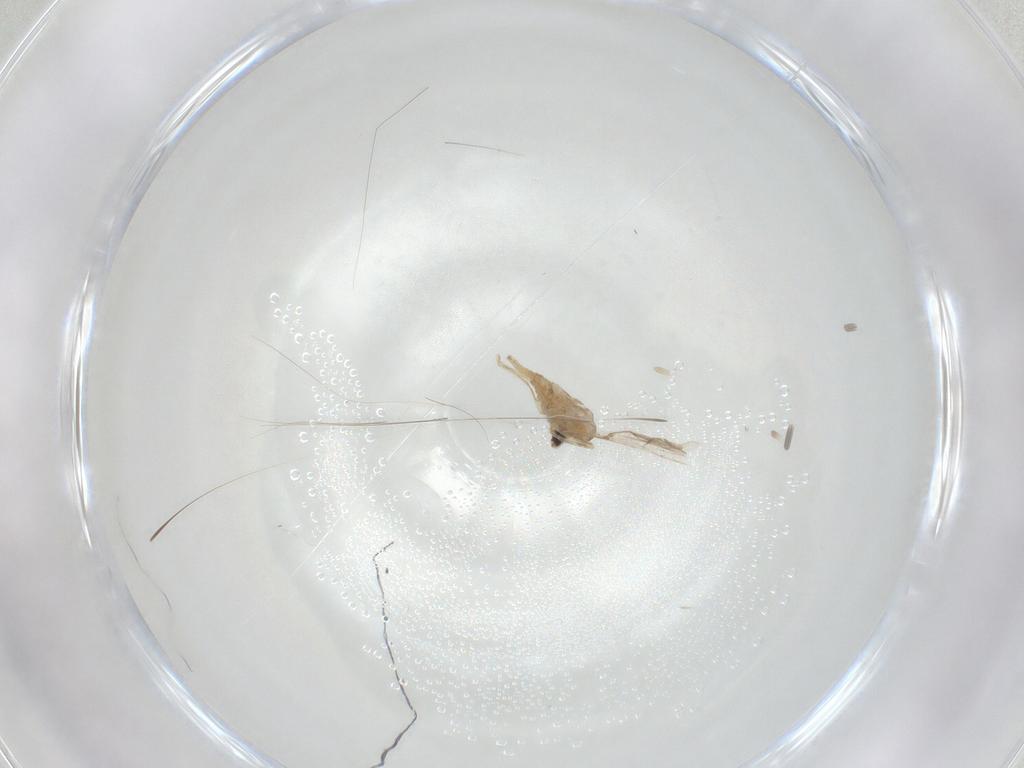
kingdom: Animalia
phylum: Arthropoda
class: Insecta
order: Diptera
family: Cecidomyiidae
